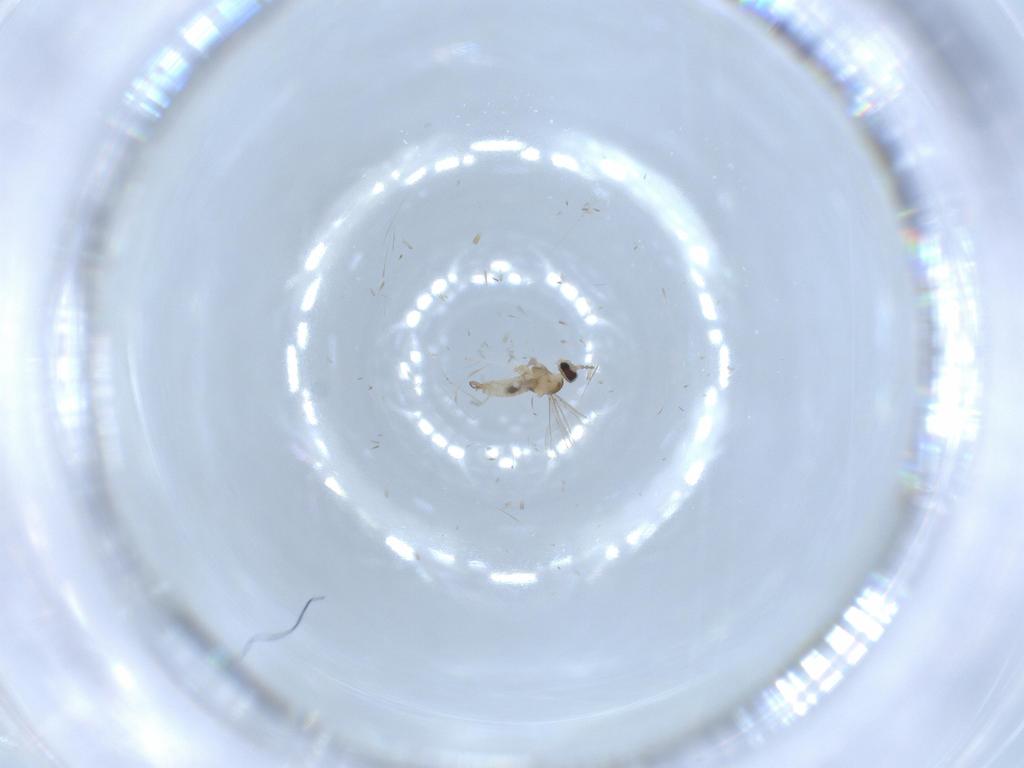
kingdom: Animalia
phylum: Arthropoda
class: Insecta
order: Diptera
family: Cecidomyiidae
